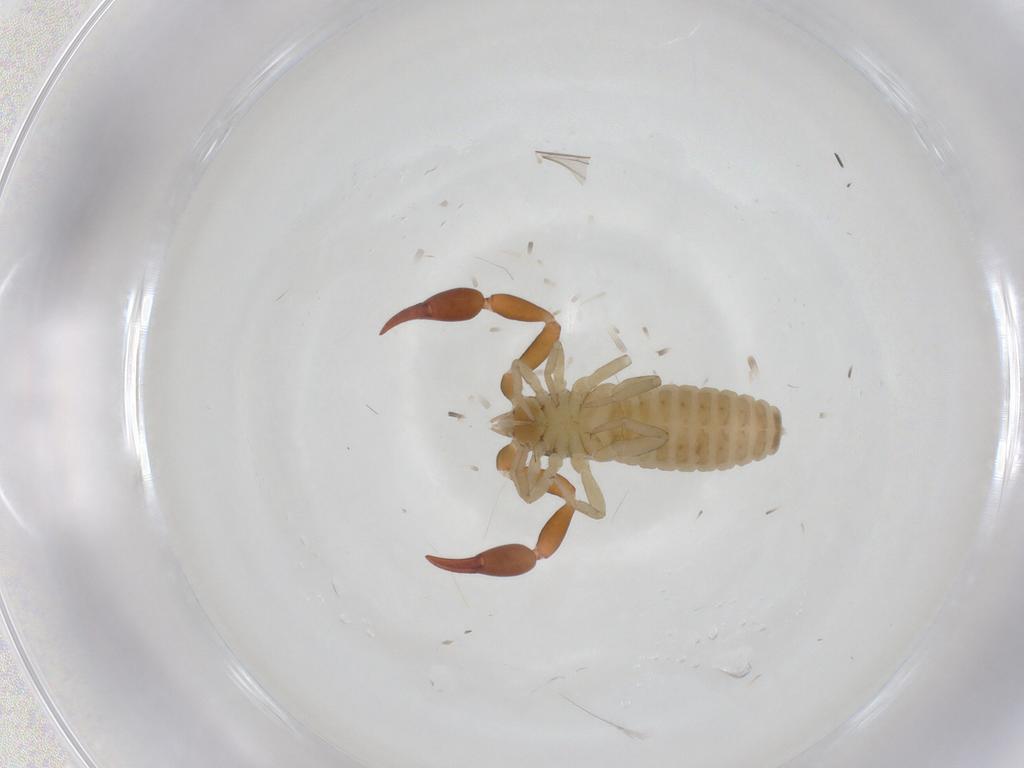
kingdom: Animalia
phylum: Arthropoda
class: Arachnida
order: Pseudoscorpiones
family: Withiidae
